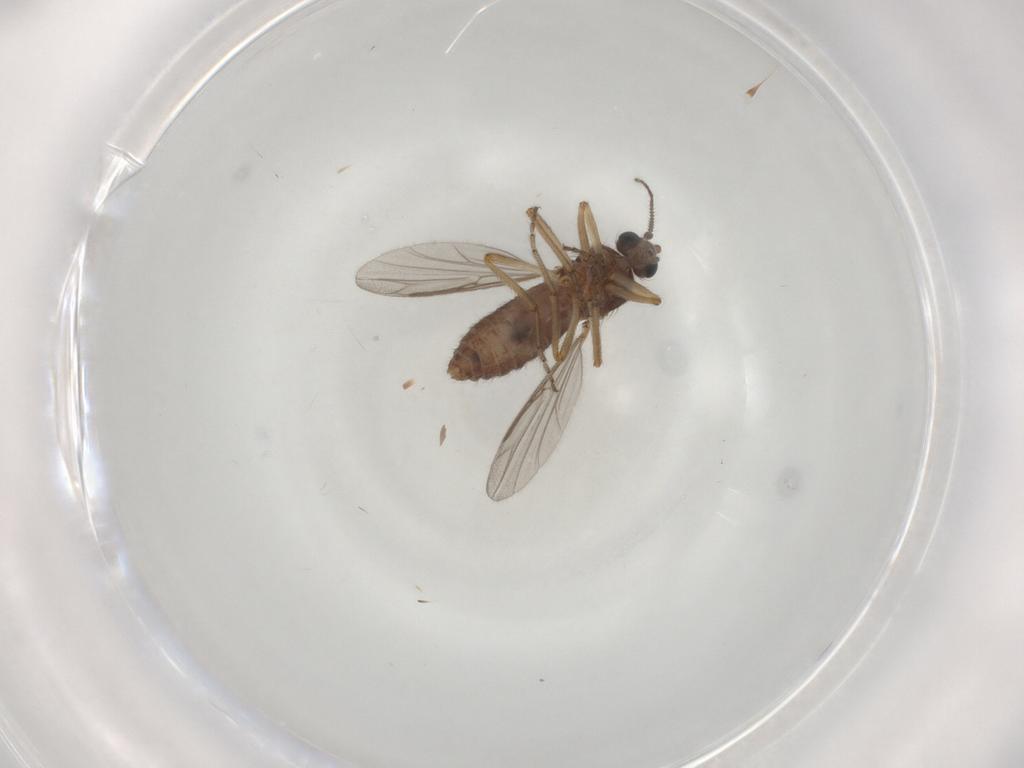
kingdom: Animalia
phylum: Arthropoda
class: Insecta
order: Diptera
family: Ceratopogonidae
